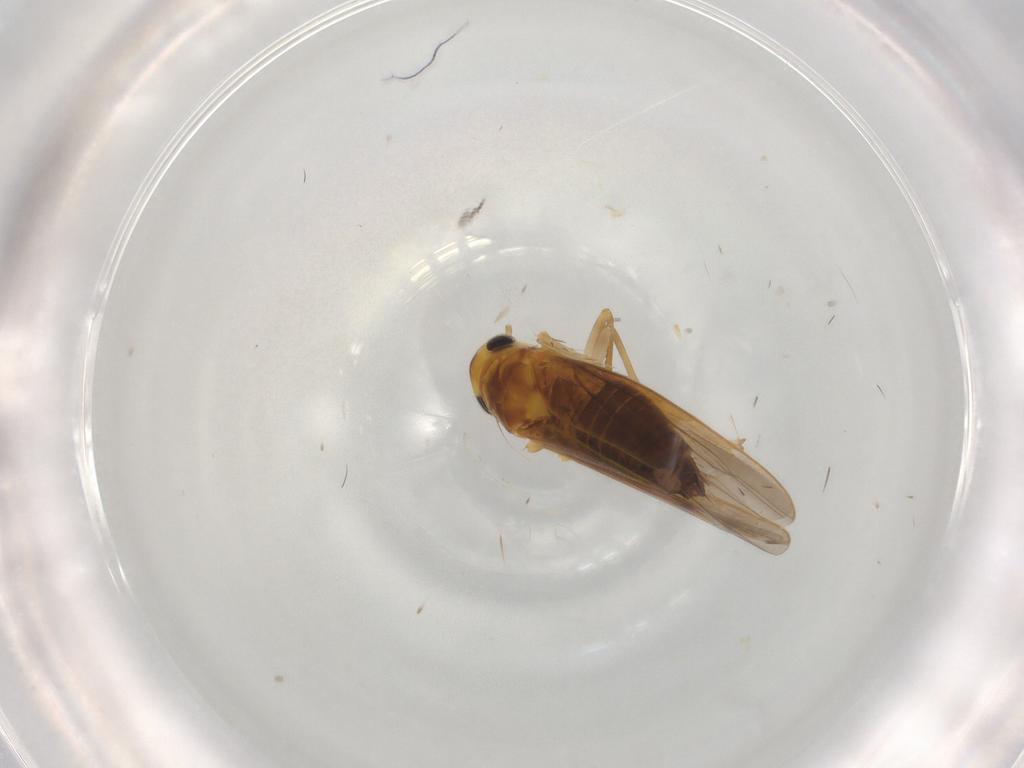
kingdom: Animalia
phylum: Arthropoda
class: Insecta
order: Hemiptera
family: Cicadellidae
